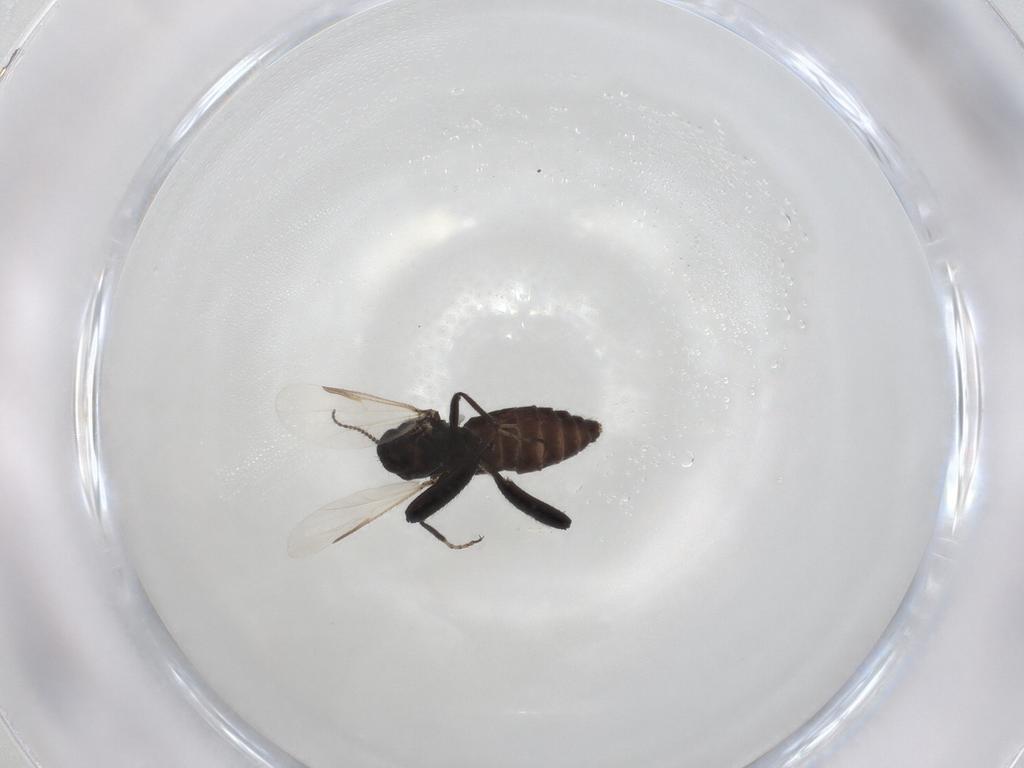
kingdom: Animalia
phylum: Arthropoda
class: Insecta
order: Diptera
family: Ceratopogonidae
